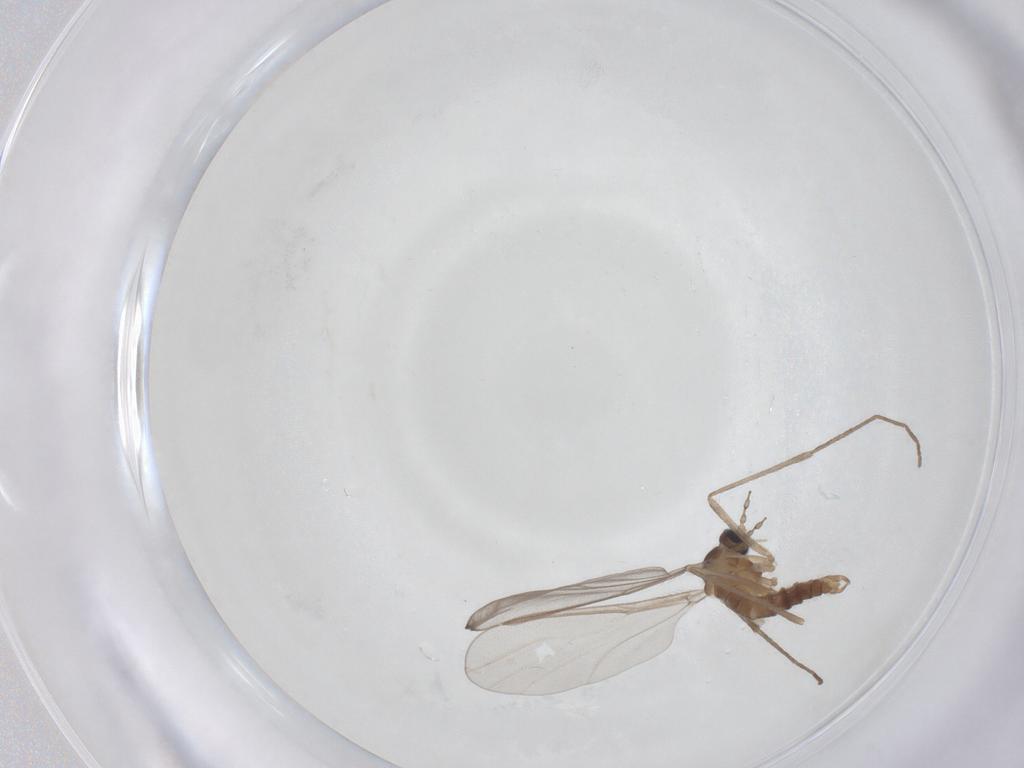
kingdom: Animalia
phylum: Arthropoda
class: Insecta
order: Diptera
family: Cecidomyiidae
